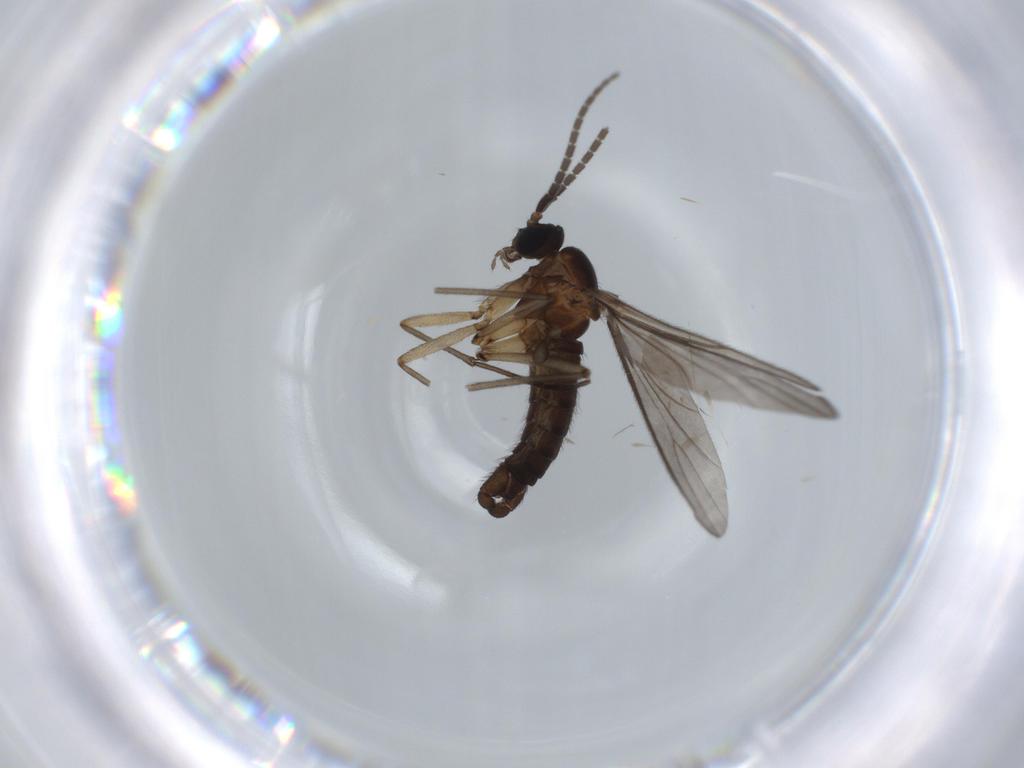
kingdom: Animalia
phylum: Arthropoda
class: Insecta
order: Diptera
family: Sciaridae
